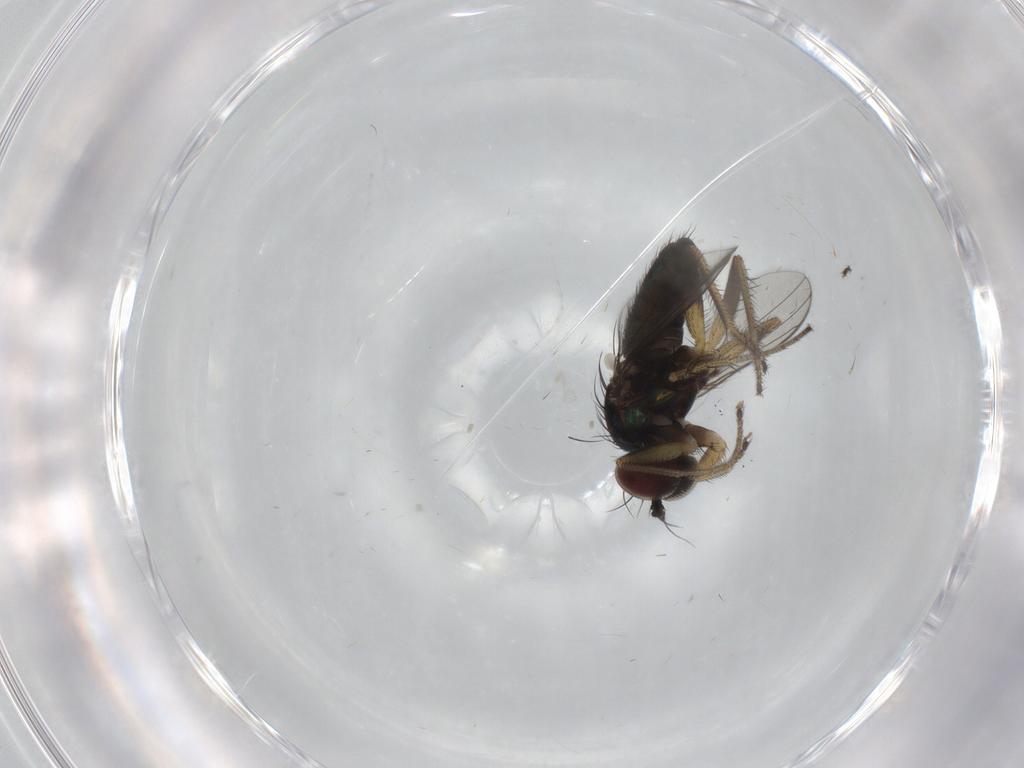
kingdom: Animalia
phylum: Arthropoda
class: Insecta
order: Diptera
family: Dolichopodidae
